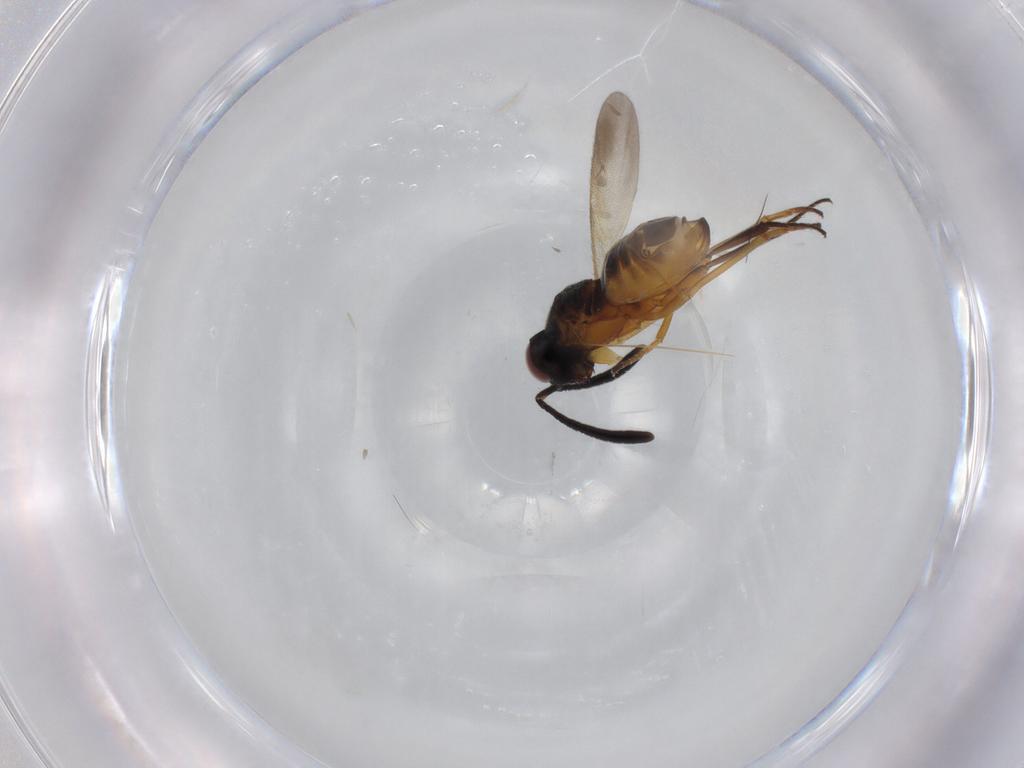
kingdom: Animalia
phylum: Arthropoda
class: Insecta
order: Hymenoptera
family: Encyrtidae
